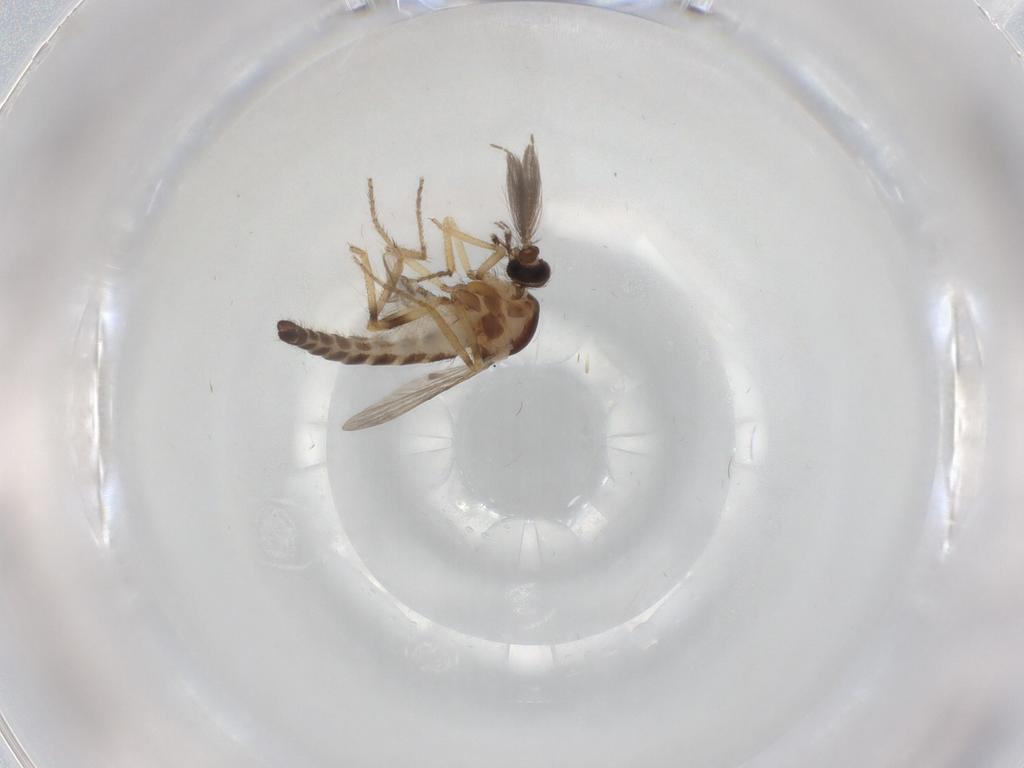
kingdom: Animalia
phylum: Arthropoda
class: Insecta
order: Diptera
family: Ceratopogonidae
